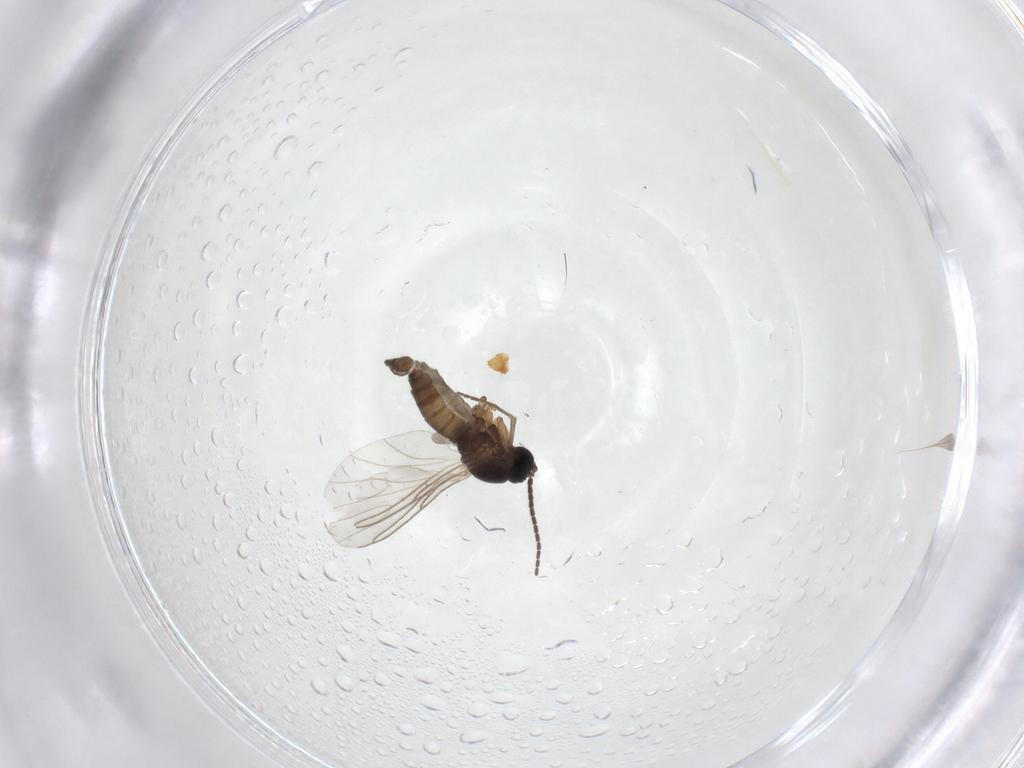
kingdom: Animalia
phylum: Arthropoda
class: Insecta
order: Diptera
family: Sciaridae
